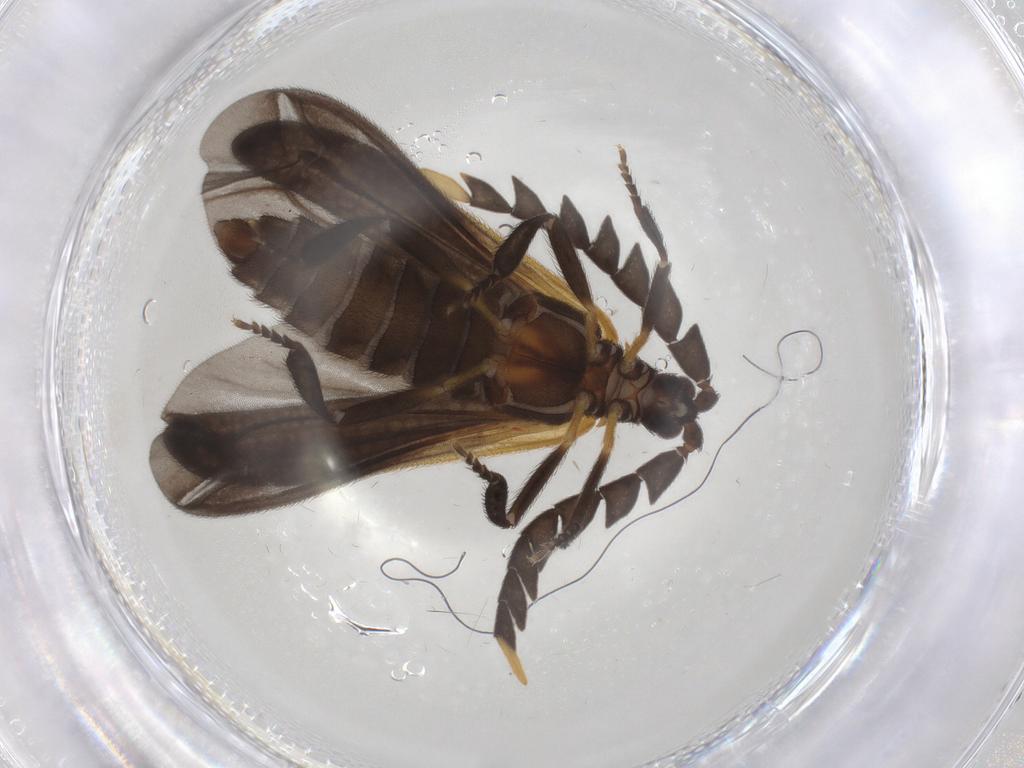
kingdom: Animalia
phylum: Arthropoda
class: Insecta
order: Coleoptera
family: Lycidae
